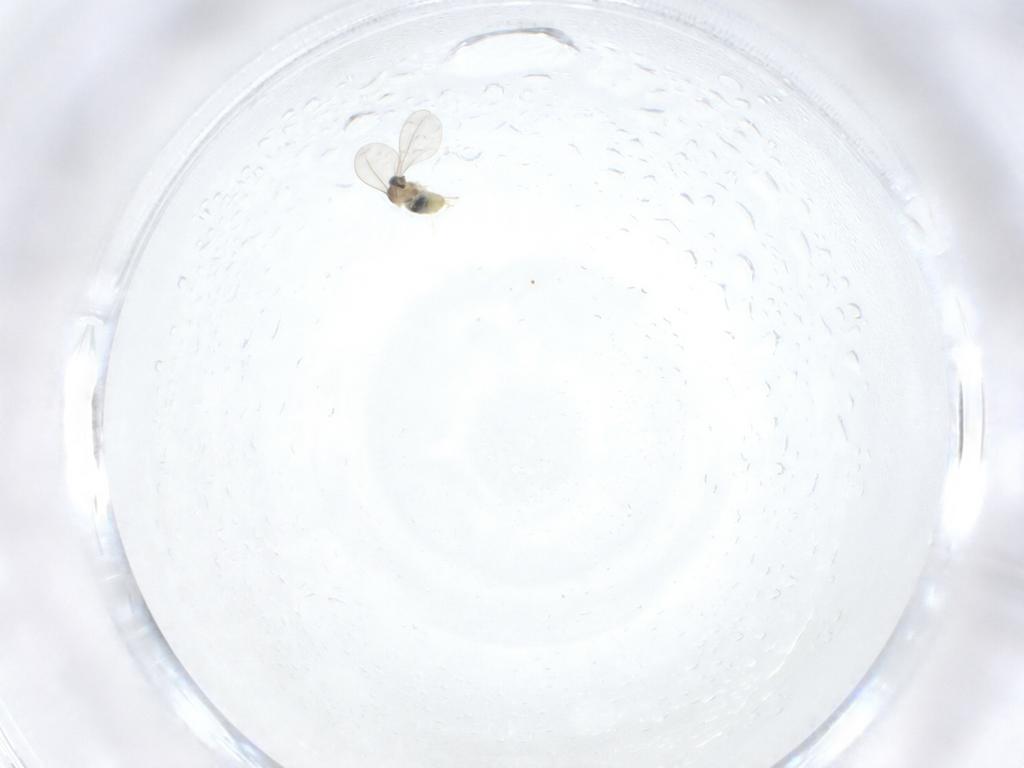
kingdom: Animalia
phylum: Arthropoda
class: Insecta
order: Diptera
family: Cecidomyiidae
